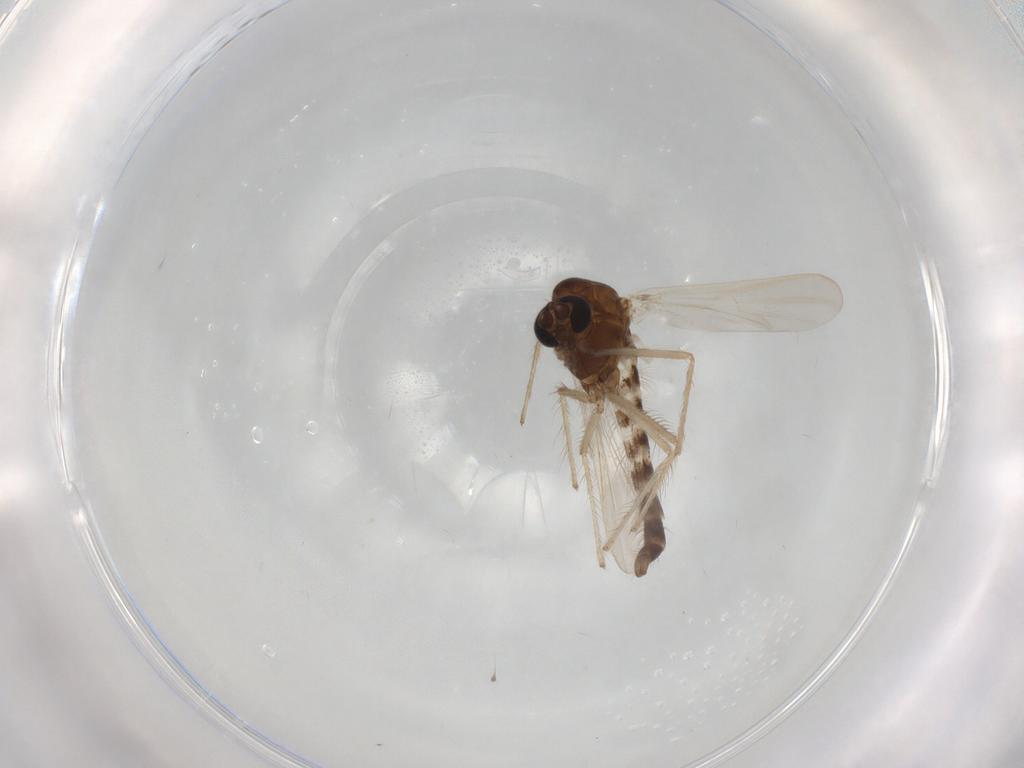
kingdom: Animalia
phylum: Arthropoda
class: Insecta
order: Diptera
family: Chironomidae
